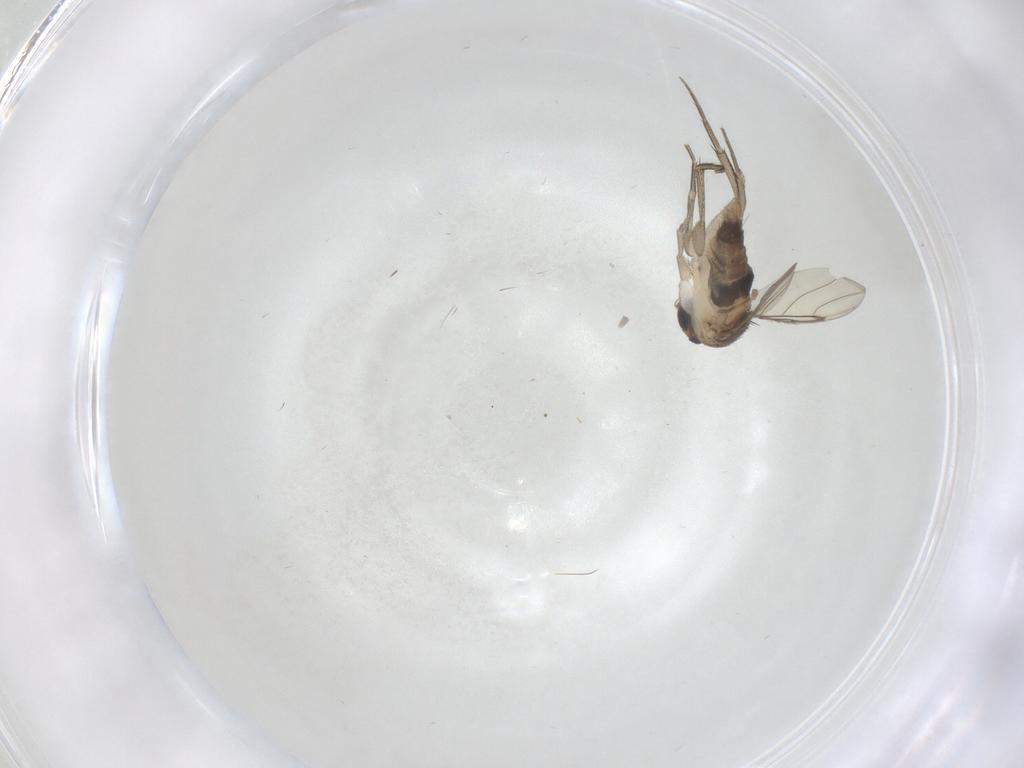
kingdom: Animalia
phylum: Arthropoda
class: Insecta
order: Diptera
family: Phoridae
